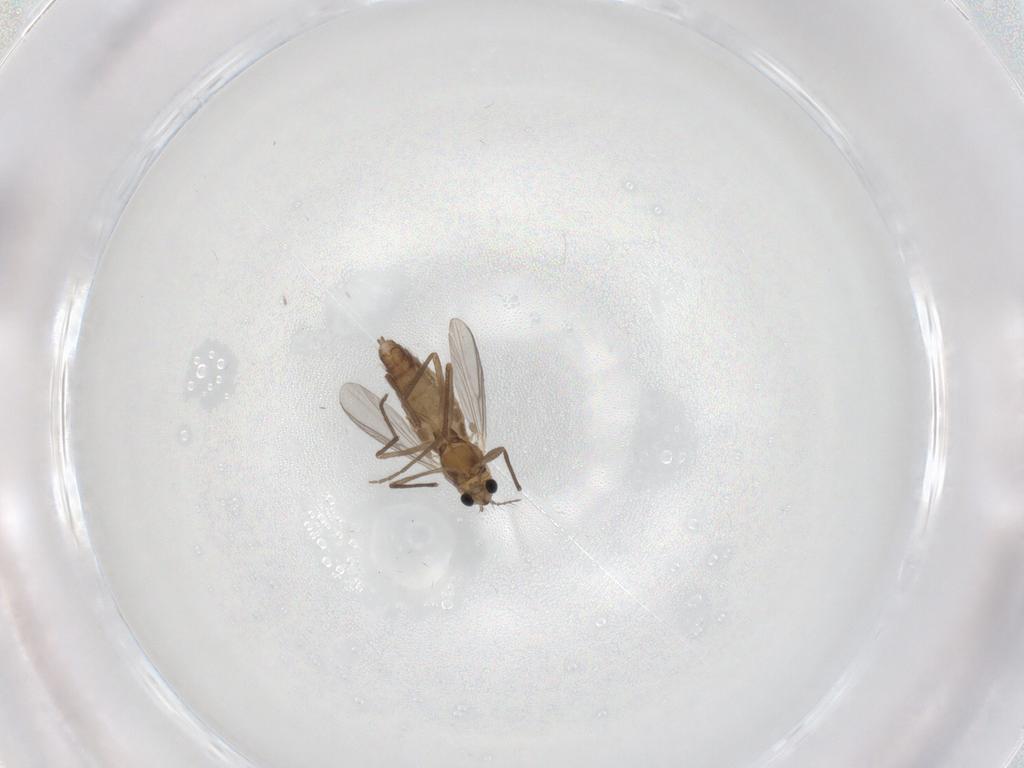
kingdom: Animalia
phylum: Arthropoda
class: Insecta
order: Diptera
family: Chironomidae
